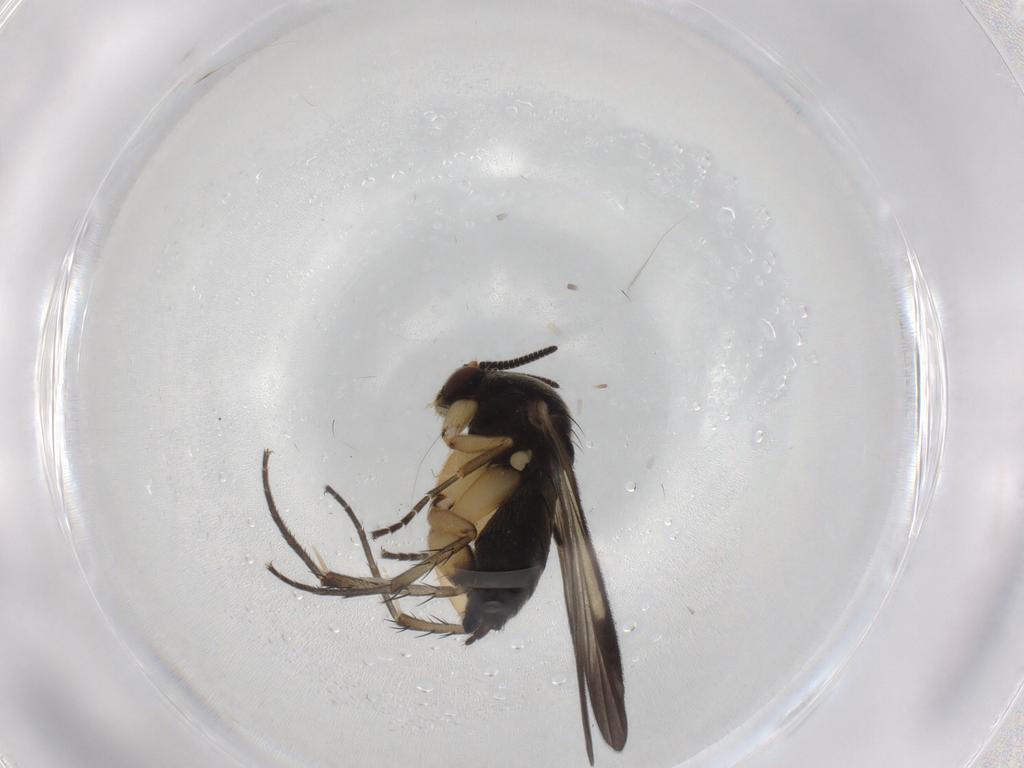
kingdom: Animalia
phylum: Arthropoda
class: Insecta
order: Diptera
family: Mycetophilidae
